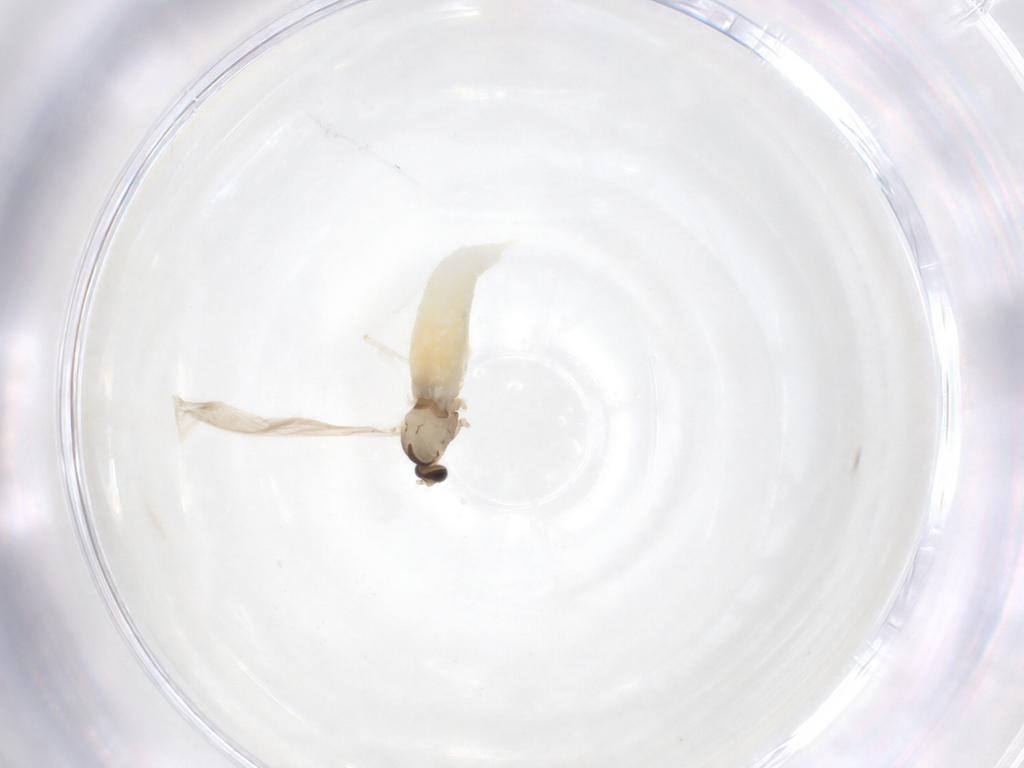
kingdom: Animalia
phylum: Arthropoda
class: Insecta
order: Diptera
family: Cecidomyiidae
